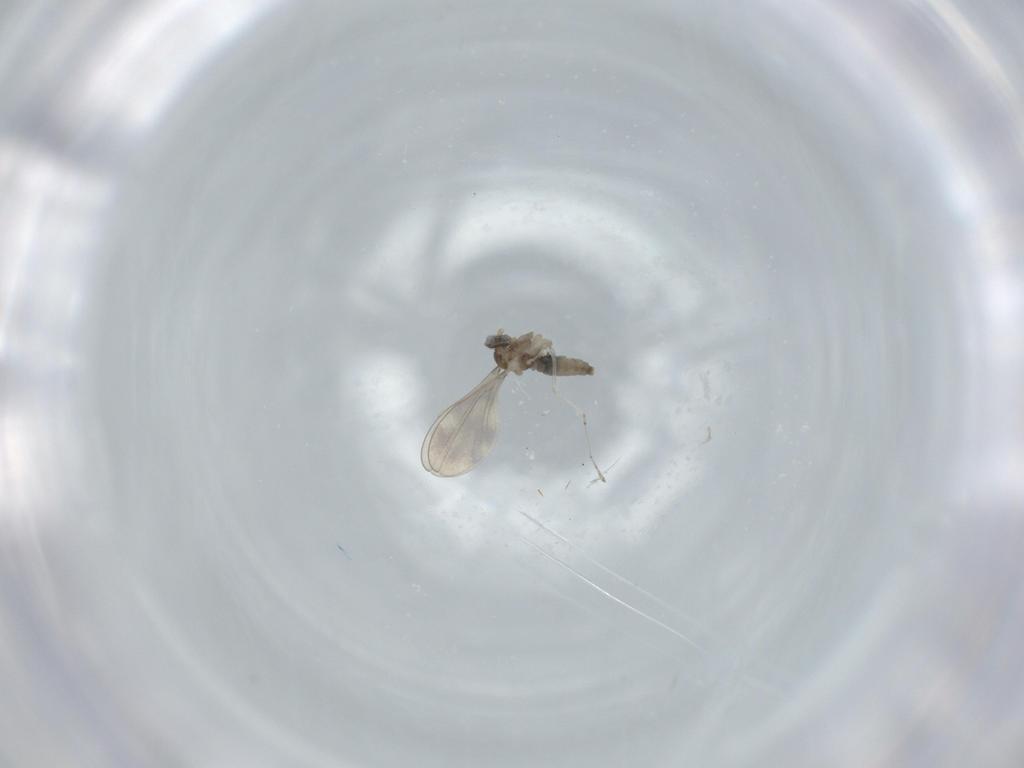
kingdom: Animalia
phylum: Arthropoda
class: Insecta
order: Diptera
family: Cecidomyiidae
